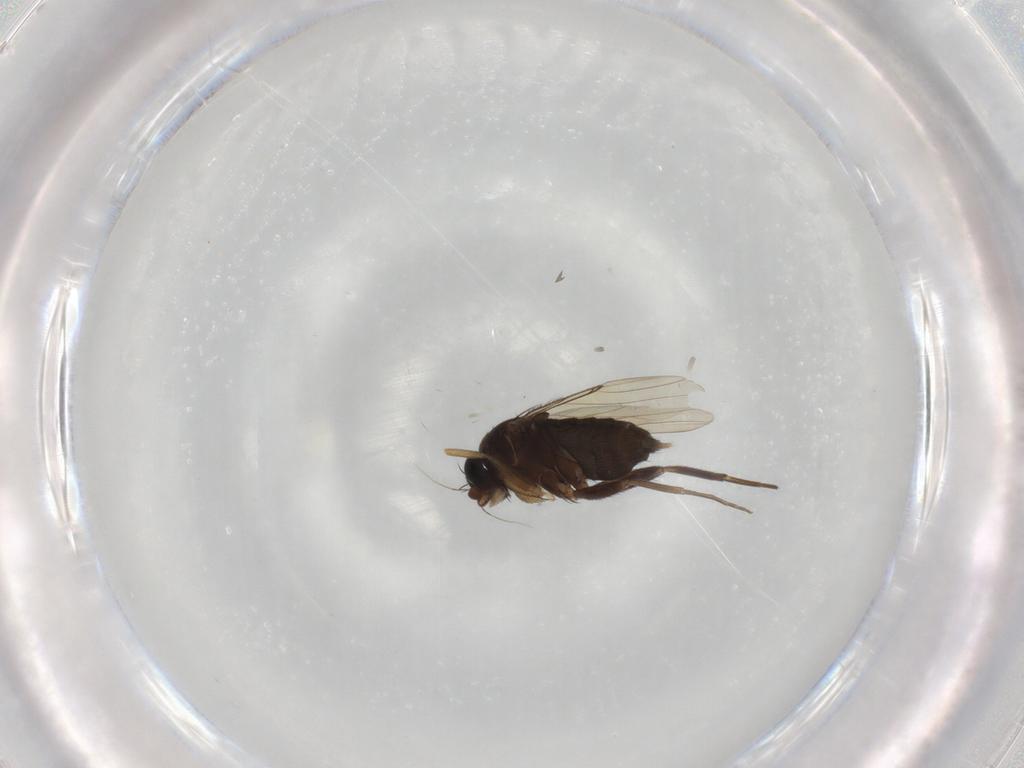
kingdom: Animalia
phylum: Arthropoda
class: Insecta
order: Diptera
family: Phoridae
